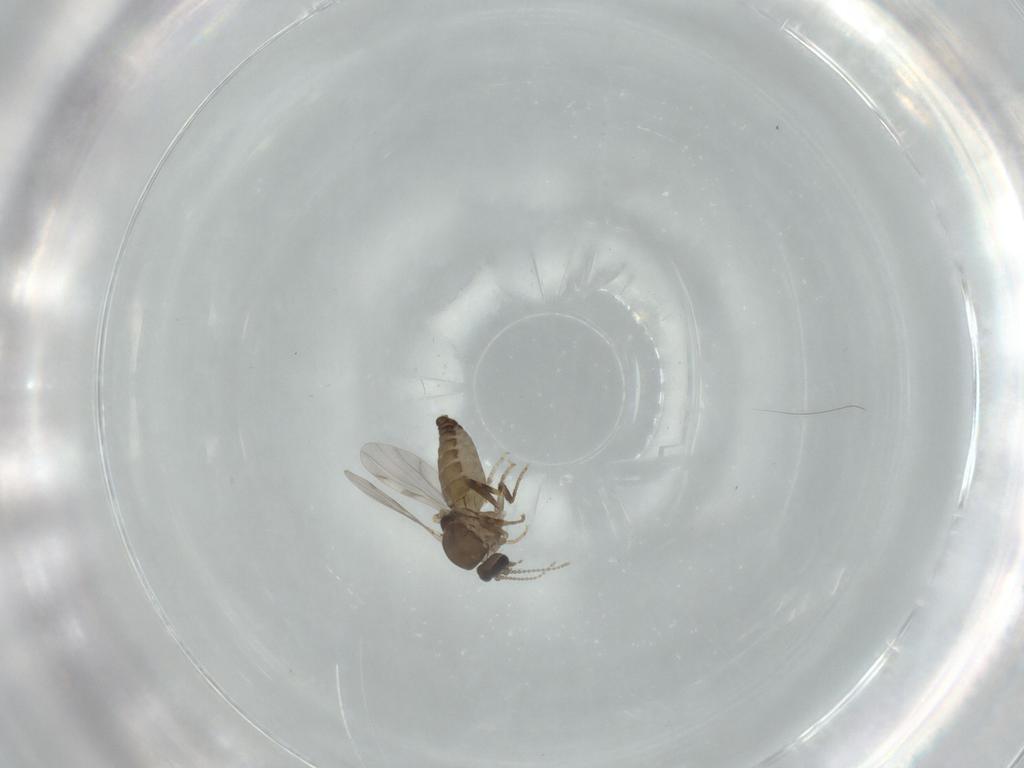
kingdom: Animalia
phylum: Arthropoda
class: Insecta
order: Diptera
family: Ceratopogonidae
